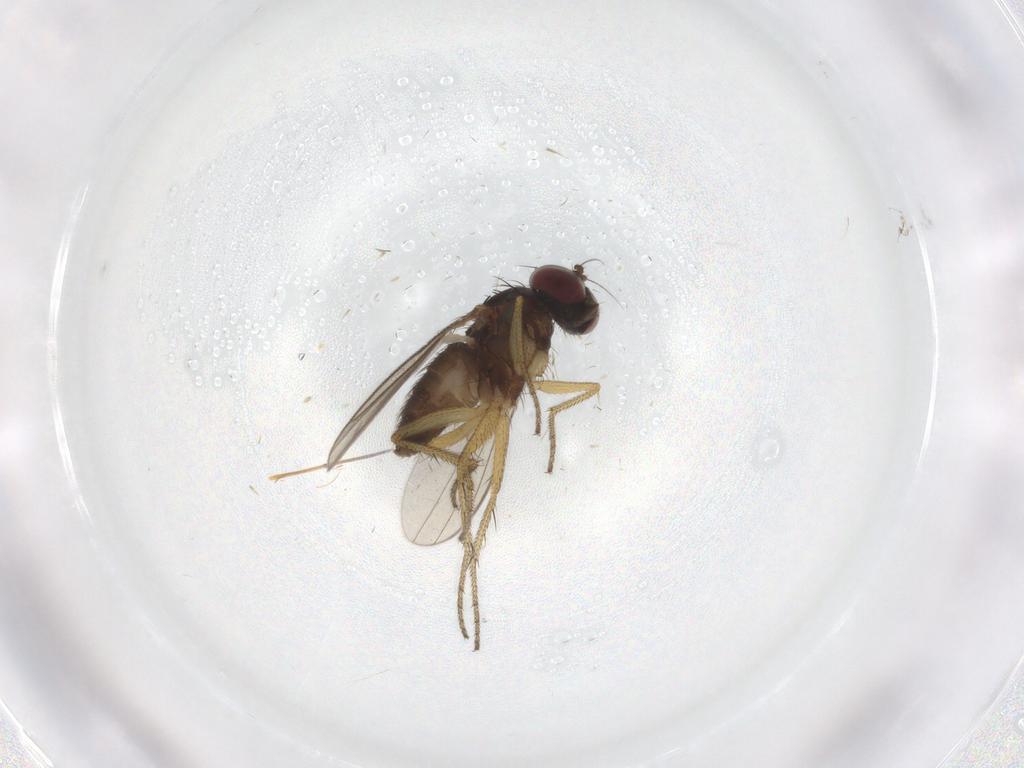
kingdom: Animalia
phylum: Arthropoda
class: Insecta
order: Diptera
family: Dolichopodidae
